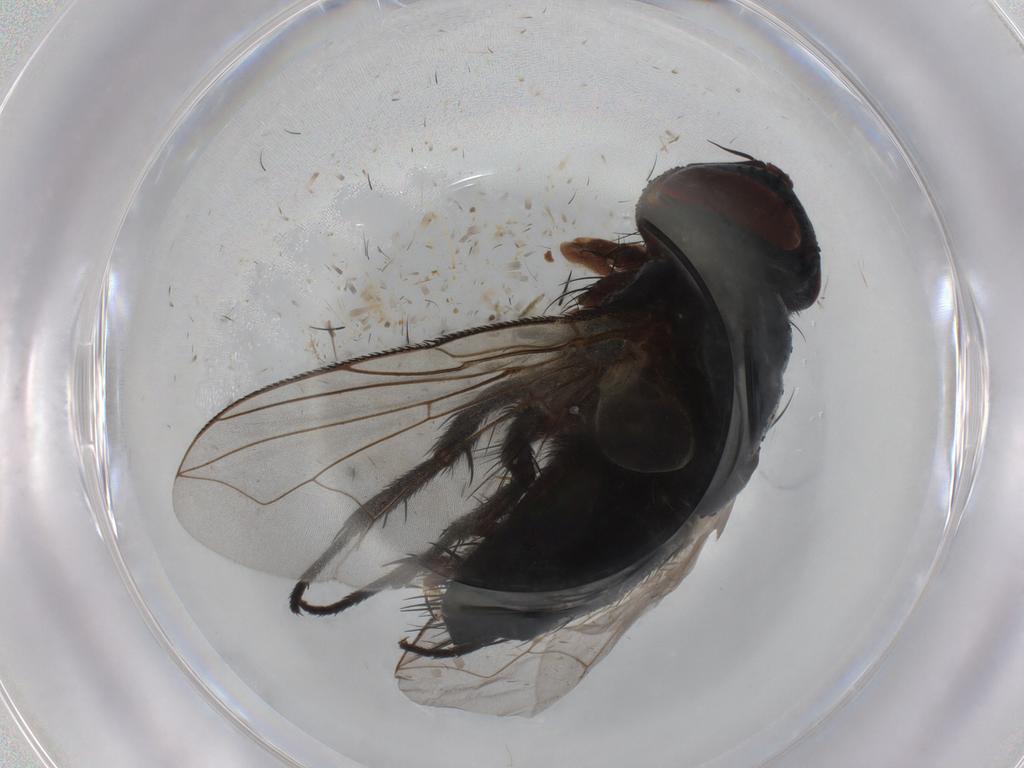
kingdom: Animalia
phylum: Arthropoda
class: Insecta
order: Diptera
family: Tachinidae
